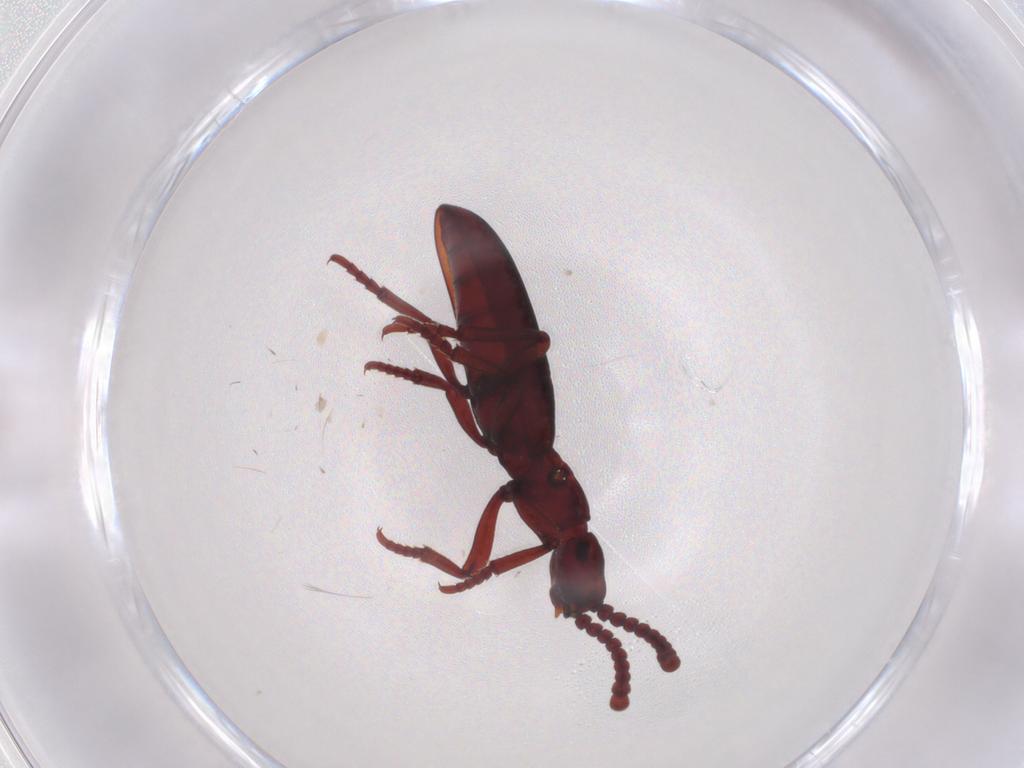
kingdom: Animalia
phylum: Arthropoda
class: Insecta
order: Coleoptera
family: Anthicidae
